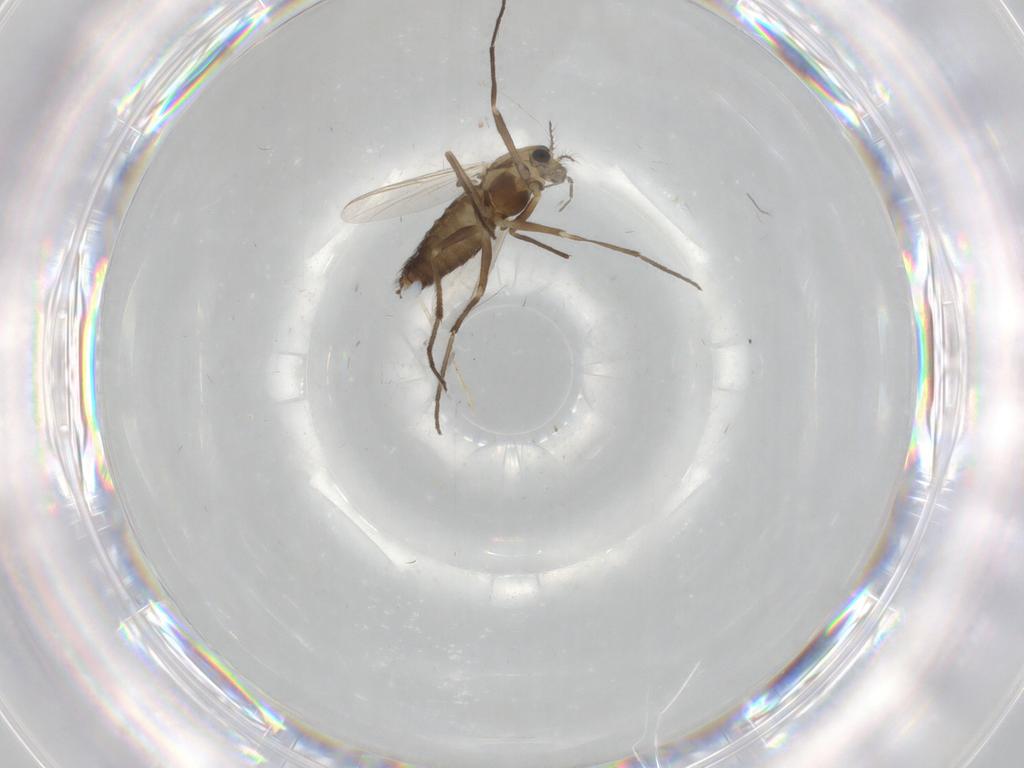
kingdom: Animalia
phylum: Arthropoda
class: Insecta
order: Diptera
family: Chironomidae
